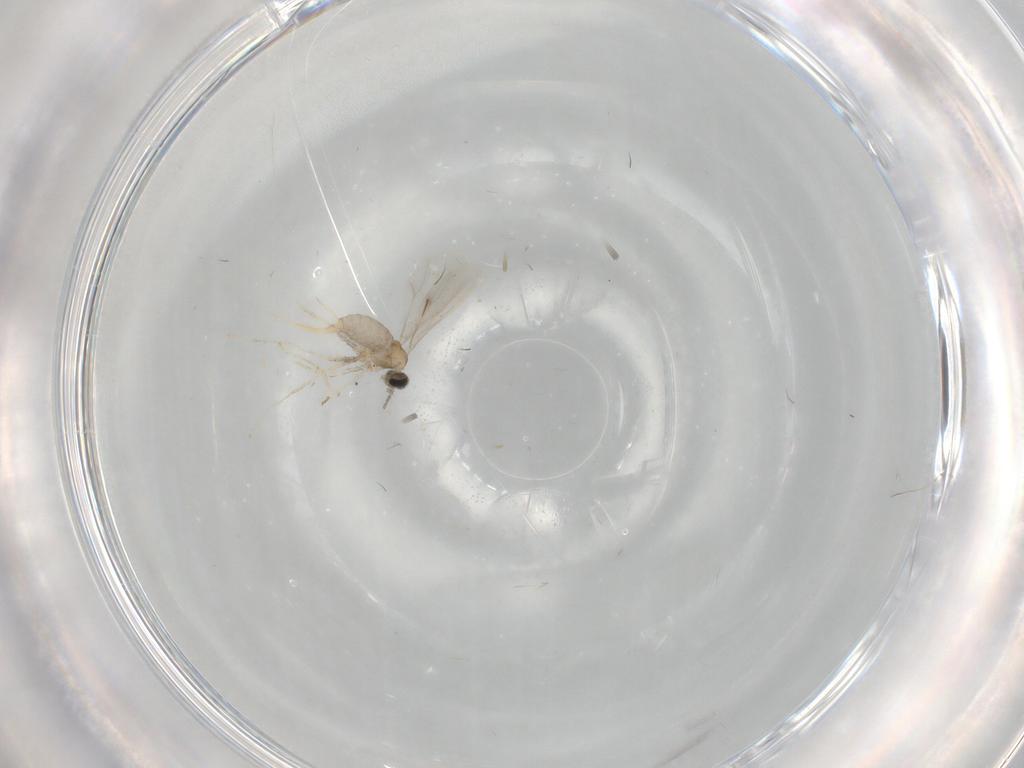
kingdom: Animalia
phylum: Arthropoda
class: Insecta
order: Diptera
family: Cecidomyiidae
